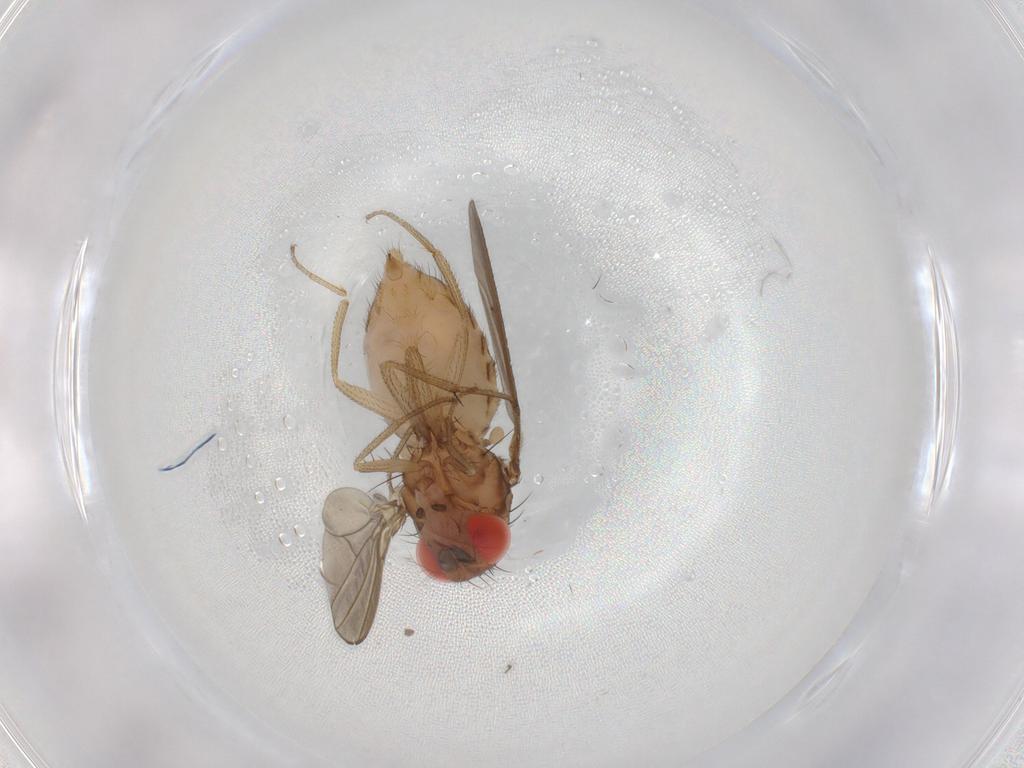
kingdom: Animalia
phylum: Arthropoda
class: Insecta
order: Diptera
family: Drosophilidae
